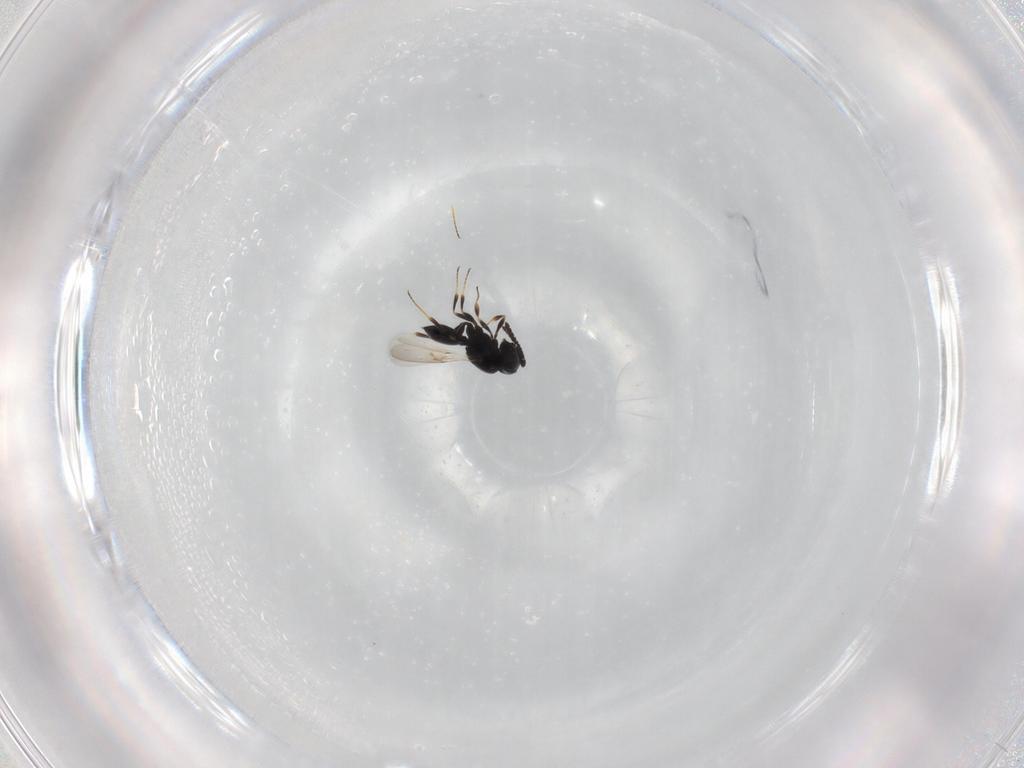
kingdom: Animalia
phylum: Arthropoda
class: Insecta
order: Hymenoptera
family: Scelionidae
